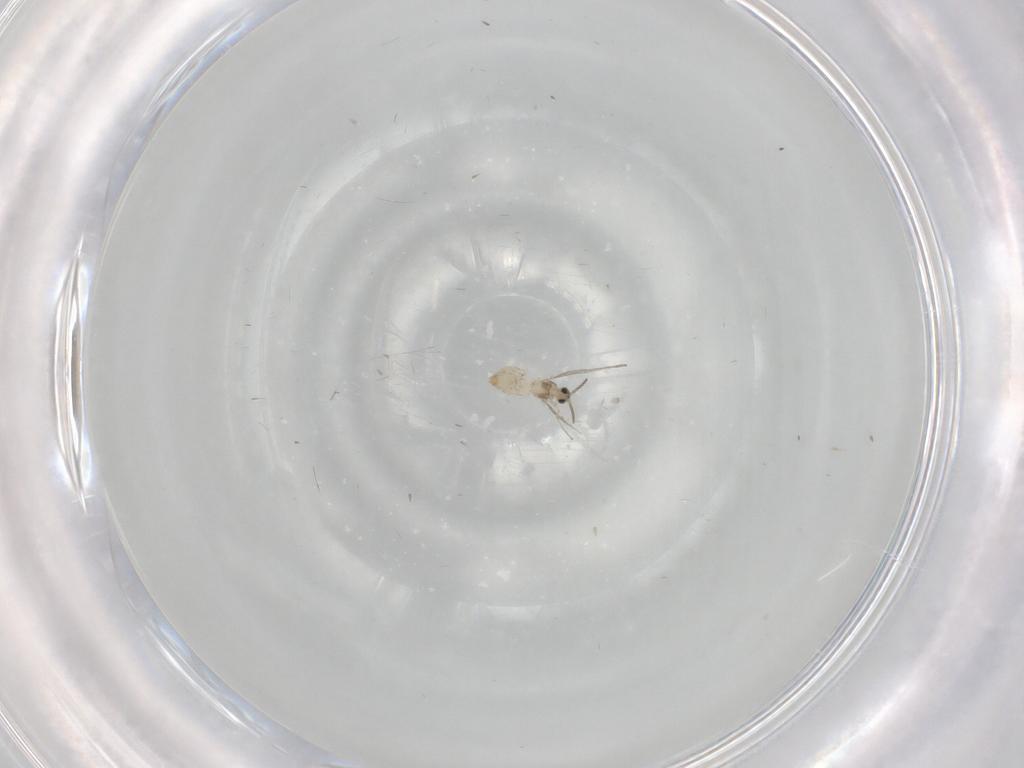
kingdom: Animalia
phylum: Arthropoda
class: Insecta
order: Diptera
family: Cecidomyiidae
